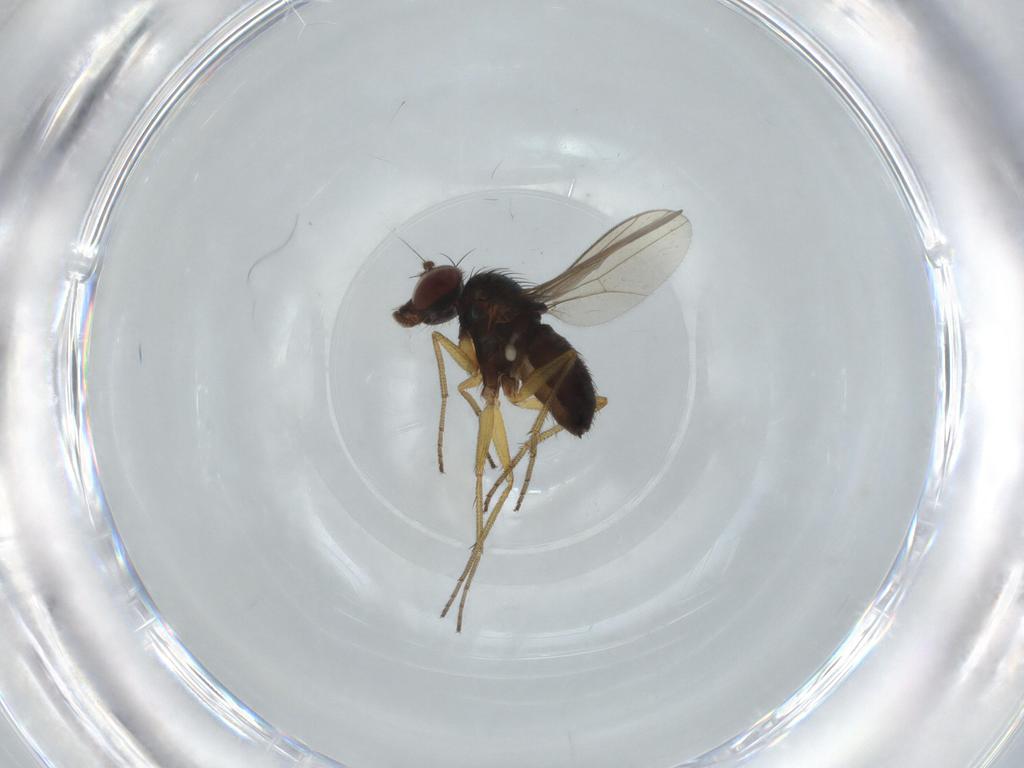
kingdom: Animalia
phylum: Arthropoda
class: Insecta
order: Diptera
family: Dolichopodidae
